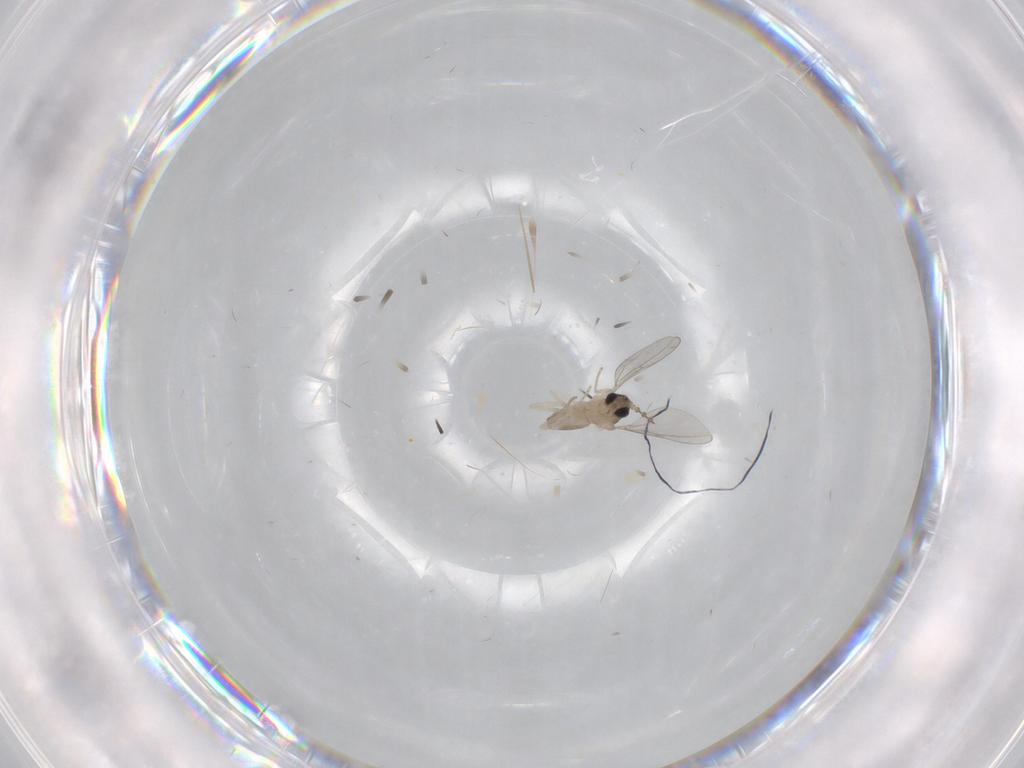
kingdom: Animalia
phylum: Arthropoda
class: Insecta
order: Diptera
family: Cecidomyiidae
